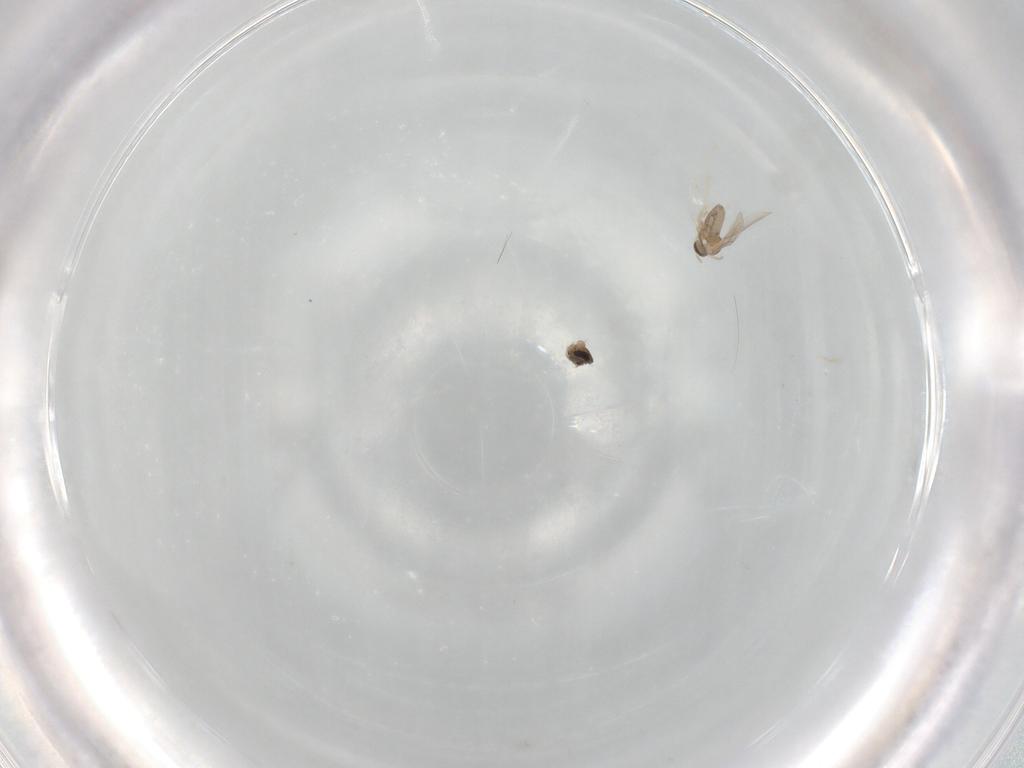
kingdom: Animalia
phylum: Arthropoda
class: Insecta
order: Diptera
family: Phoridae
